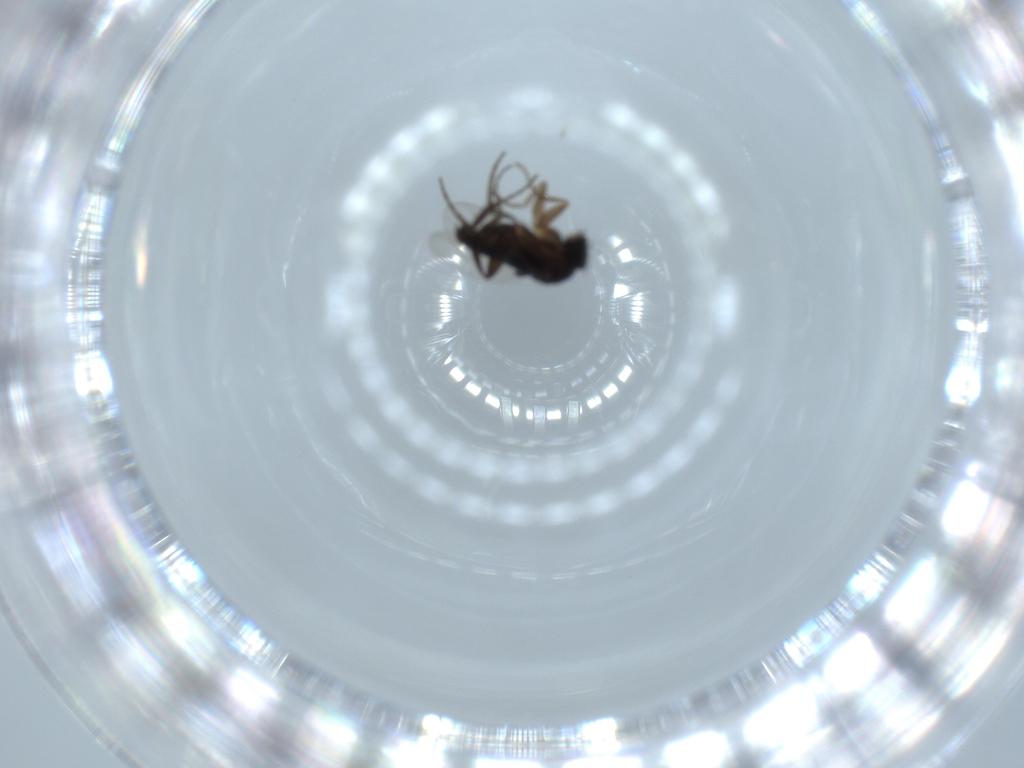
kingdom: Animalia
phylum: Arthropoda
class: Insecta
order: Diptera
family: Phoridae
